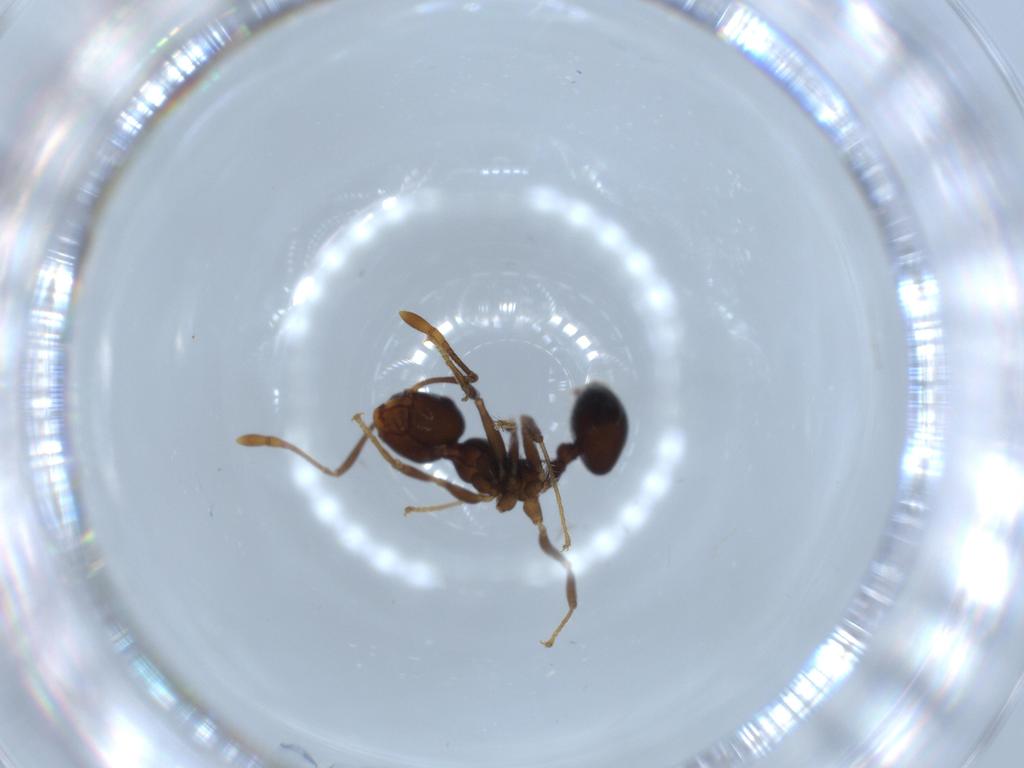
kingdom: Animalia
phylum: Arthropoda
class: Insecta
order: Hymenoptera
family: Formicidae
